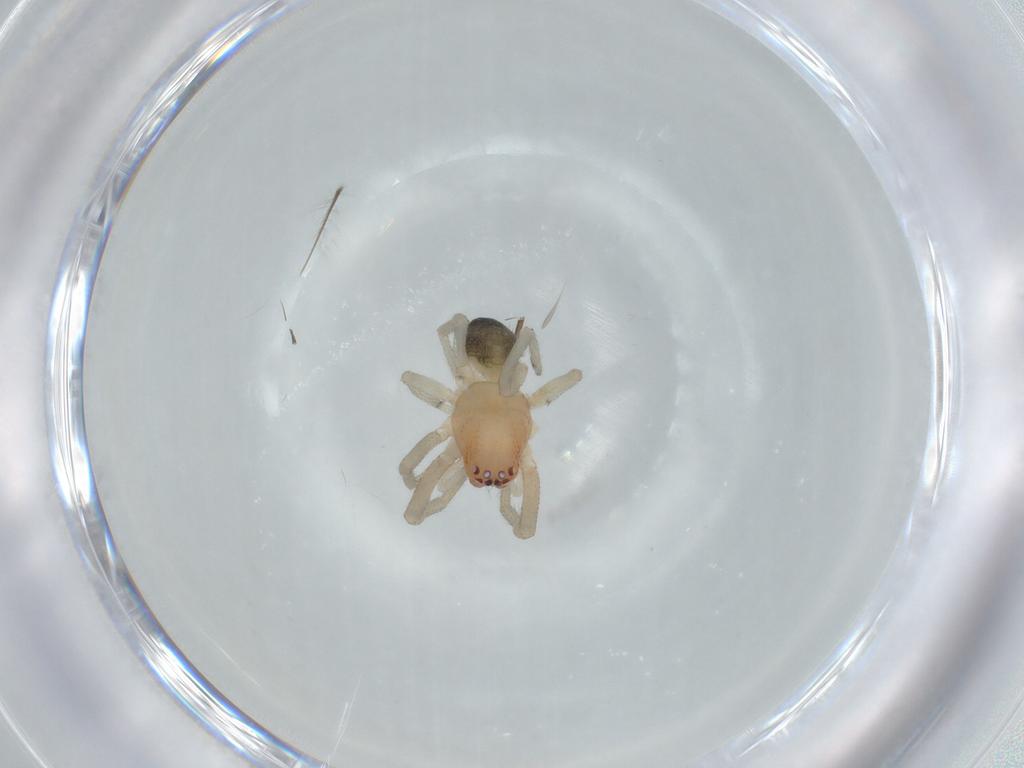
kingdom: Animalia
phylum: Arthropoda
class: Arachnida
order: Araneae
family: Trachelidae
